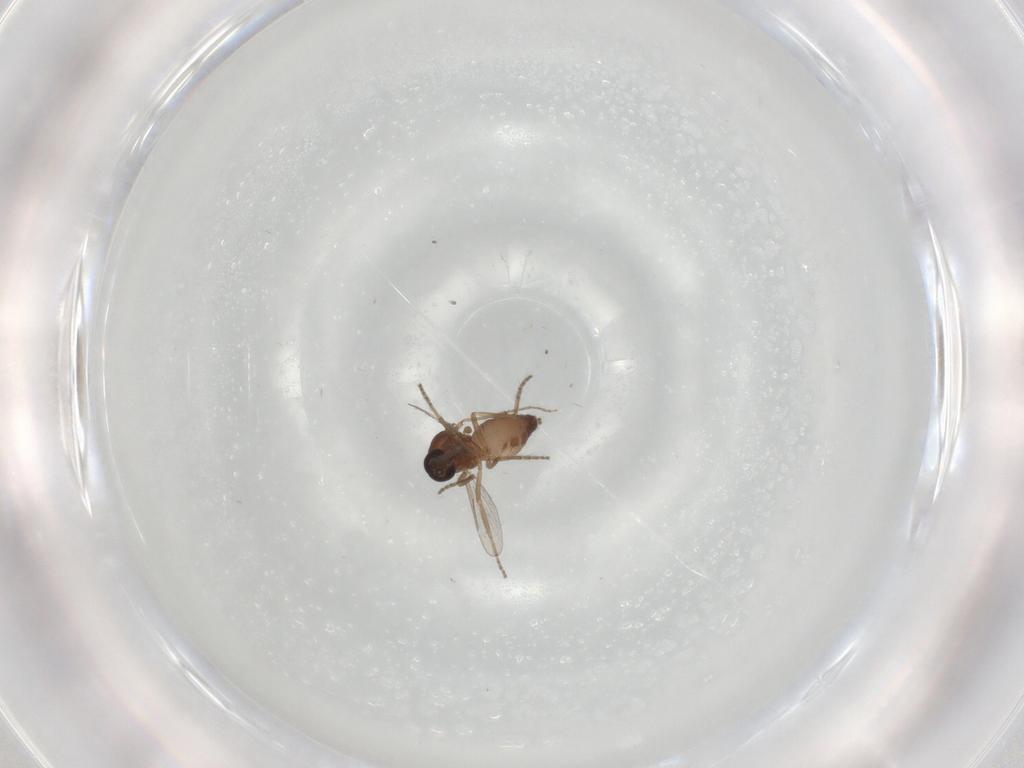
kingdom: Animalia
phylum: Arthropoda
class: Insecta
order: Diptera
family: Ceratopogonidae
